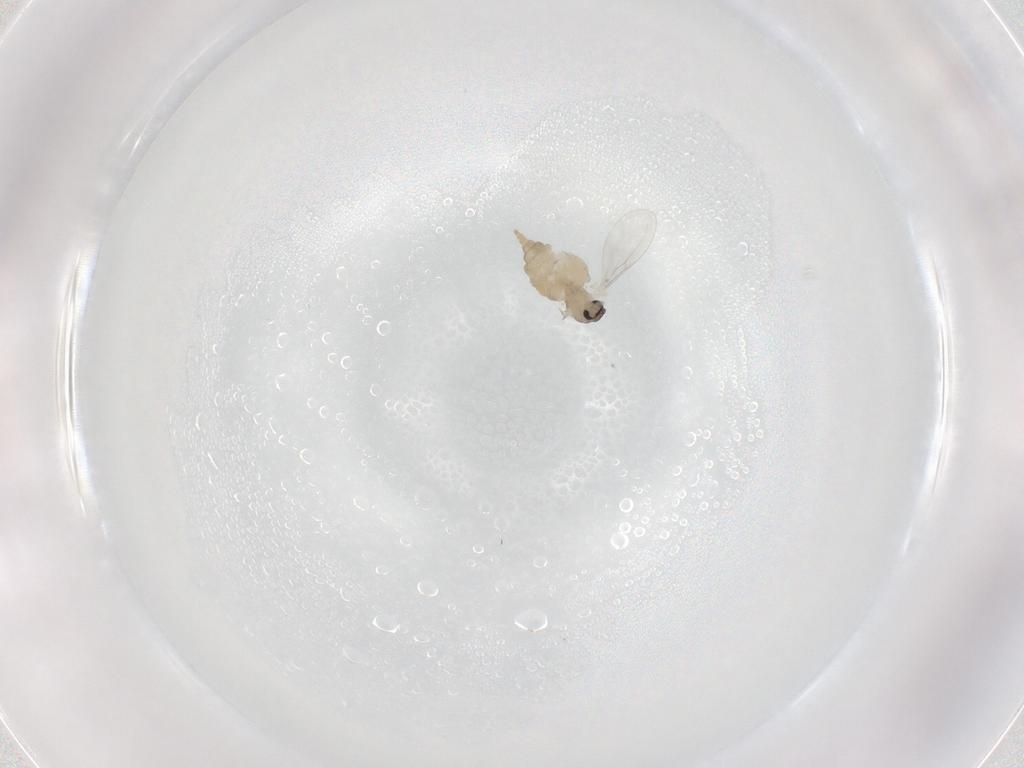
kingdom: Animalia
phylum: Arthropoda
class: Insecta
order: Diptera
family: Cecidomyiidae
